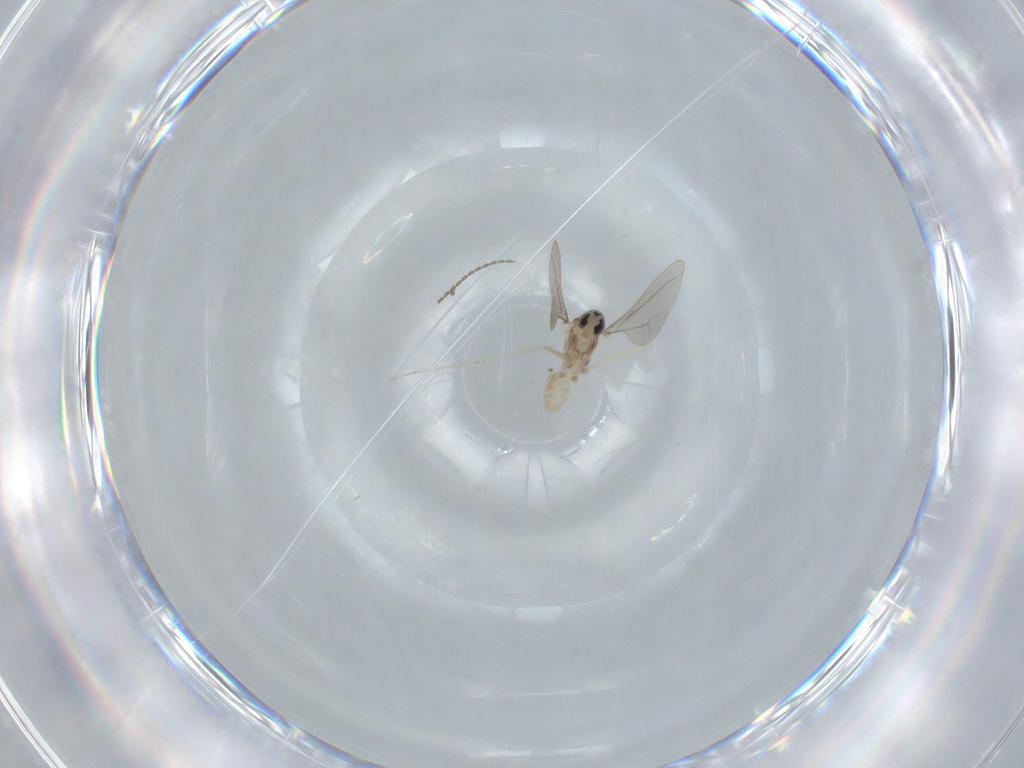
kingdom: Animalia
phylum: Arthropoda
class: Insecta
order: Diptera
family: Cecidomyiidae
